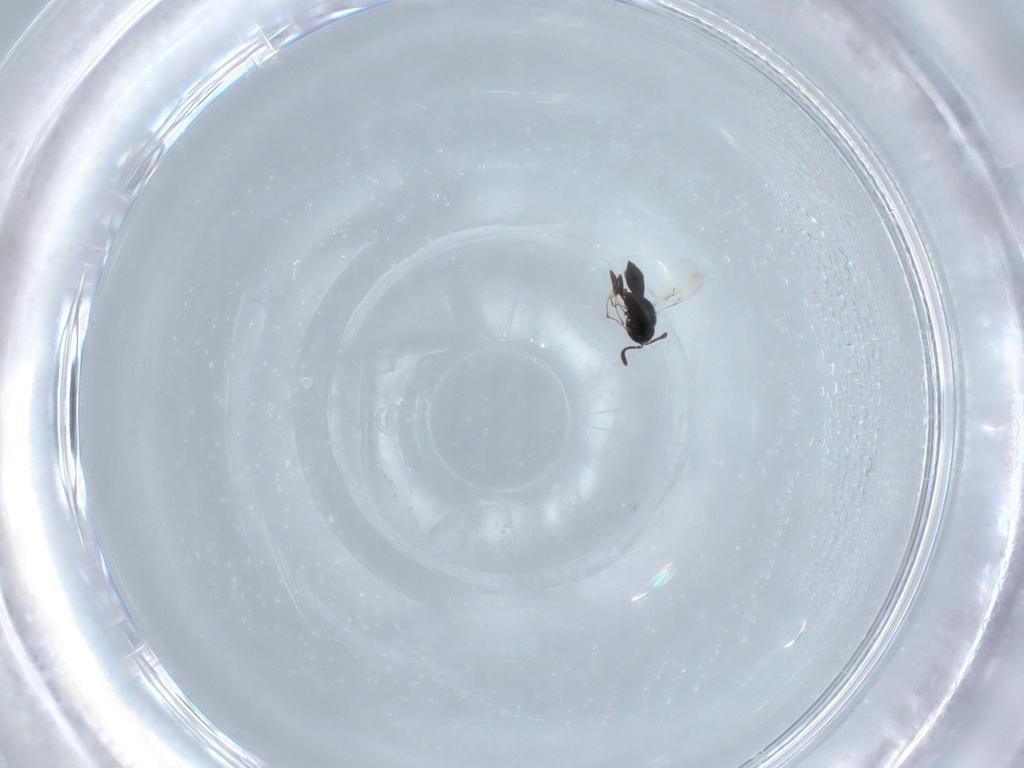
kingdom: Animalia
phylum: Arthropoda
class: Insecta
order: Hymenoptera
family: Scelionidae
